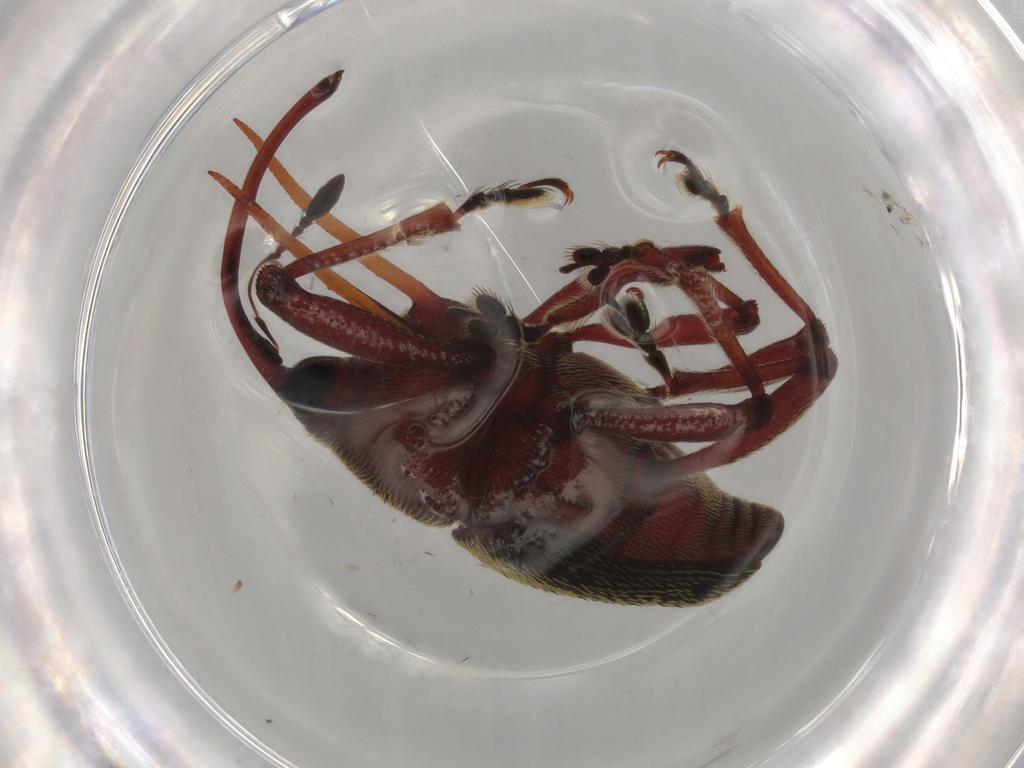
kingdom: Animalia
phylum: Arthropoda
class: Insecta
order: Coleoptera
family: Curculionidae
